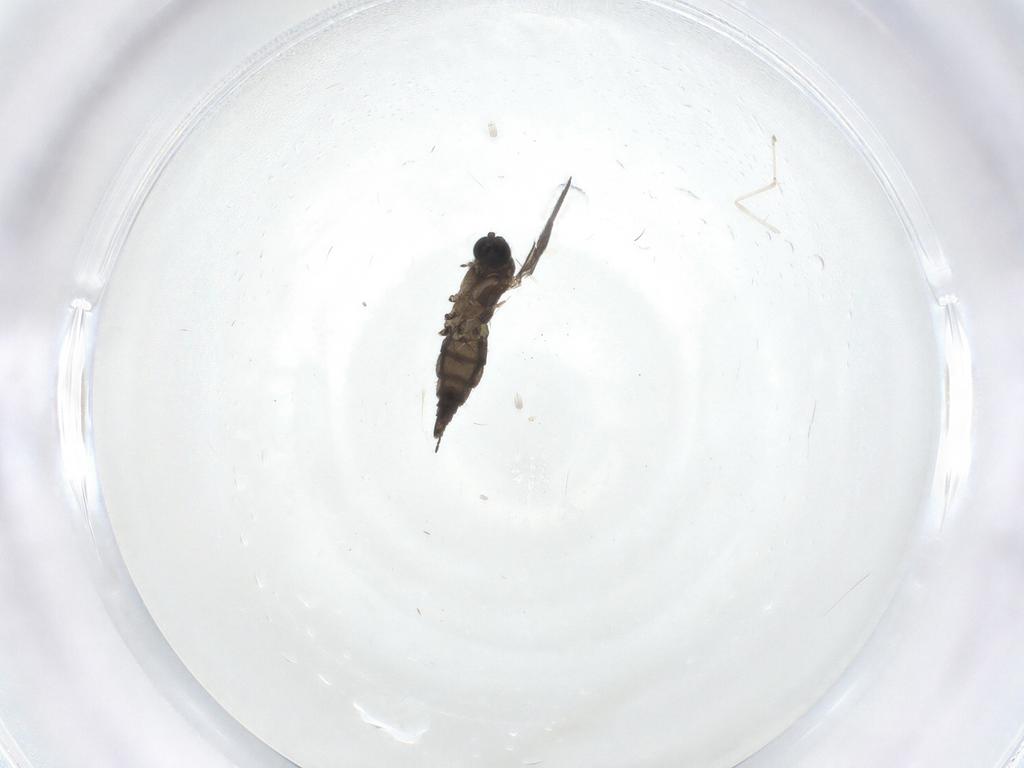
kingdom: Animalia
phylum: Arthropoda
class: Insecta
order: Diptera
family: Sciaridae
